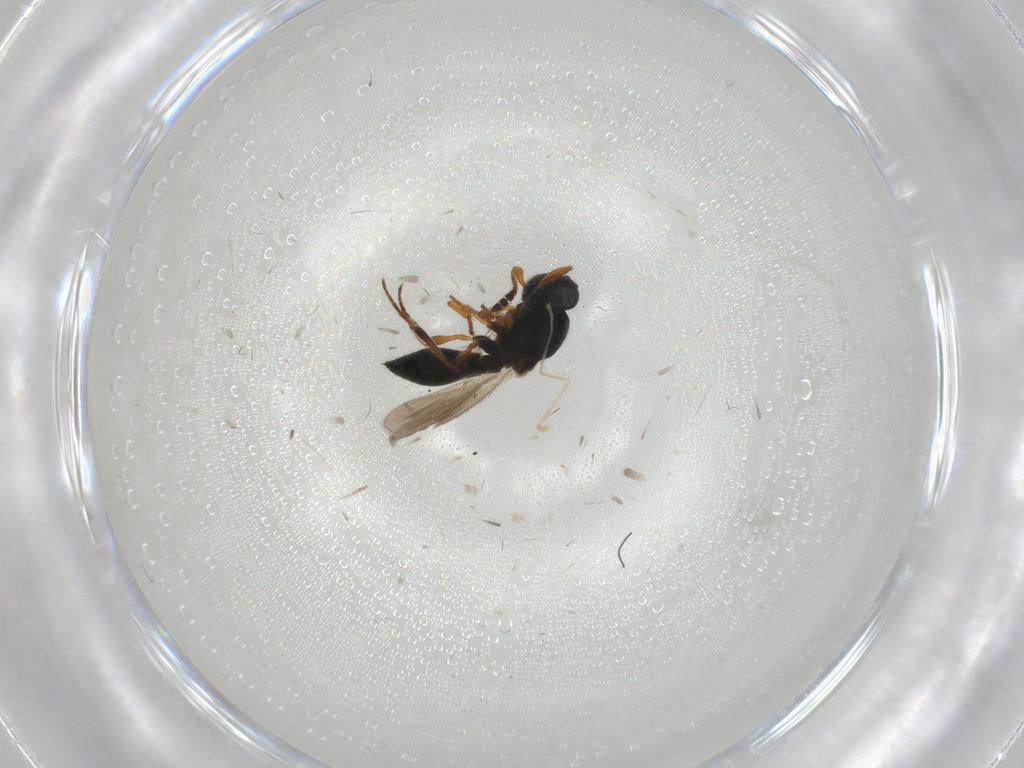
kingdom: Animalia
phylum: Arthropoda
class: Insecta
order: Hymenoptera
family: Platygastridae
